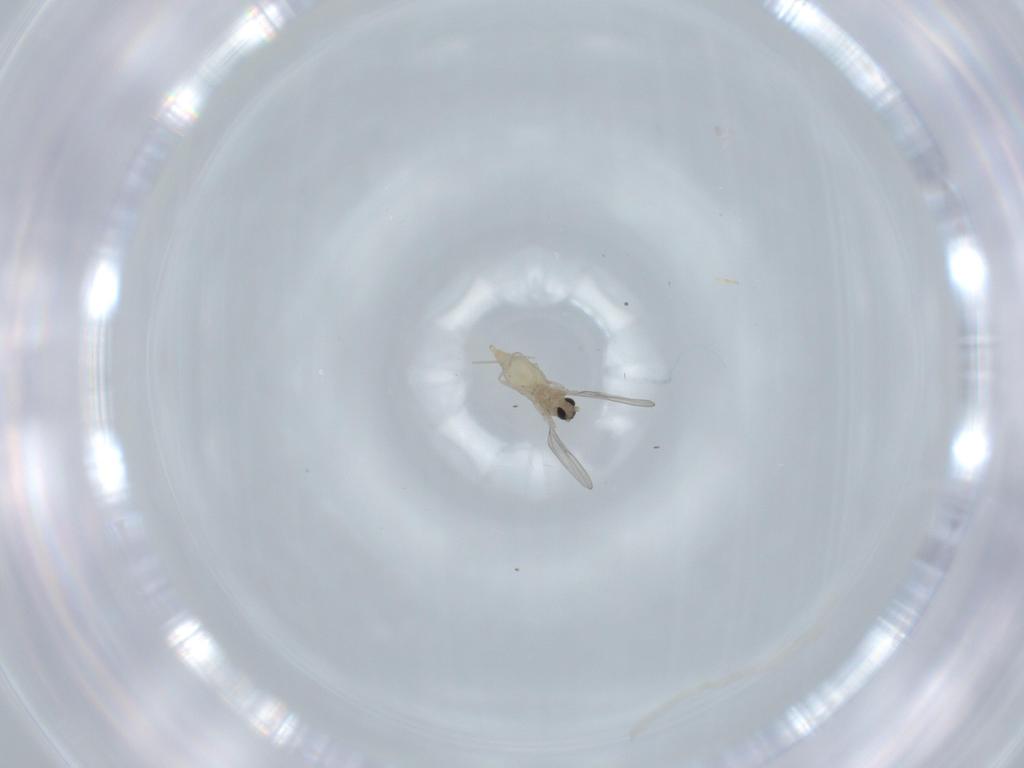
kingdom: Animalia
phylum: Arthropoda
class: Insecta
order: Diptera
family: Cecidomyiidae
